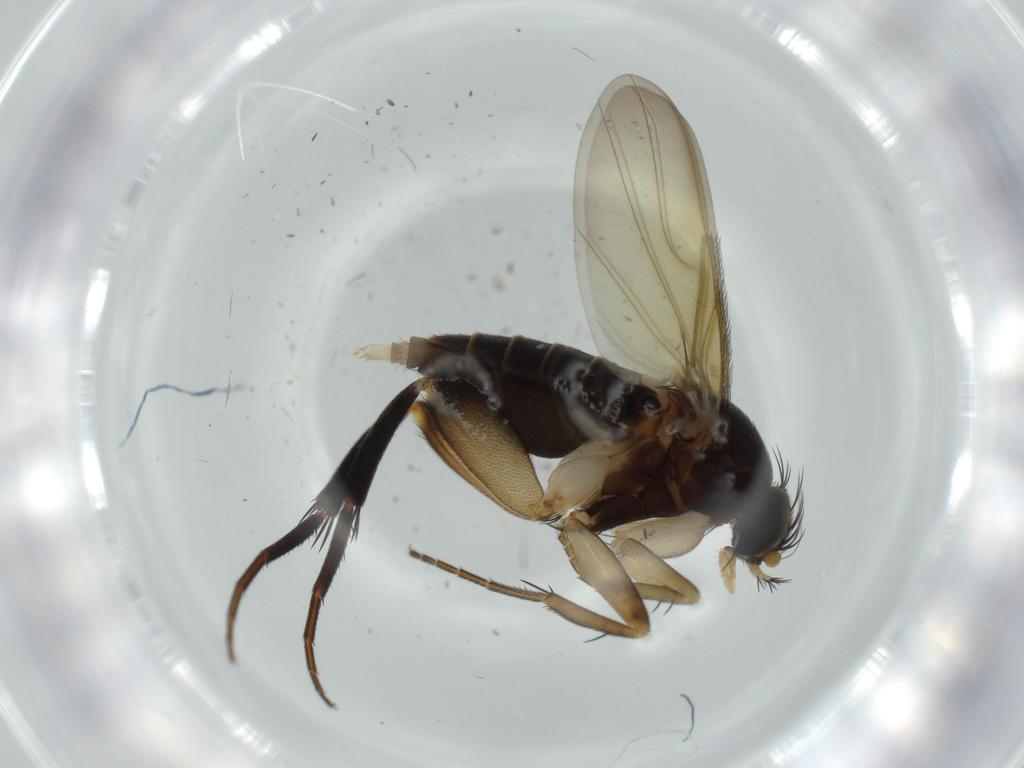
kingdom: Animalia
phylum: Arthropoda
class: Insecta
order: Diptera
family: Phoridae
